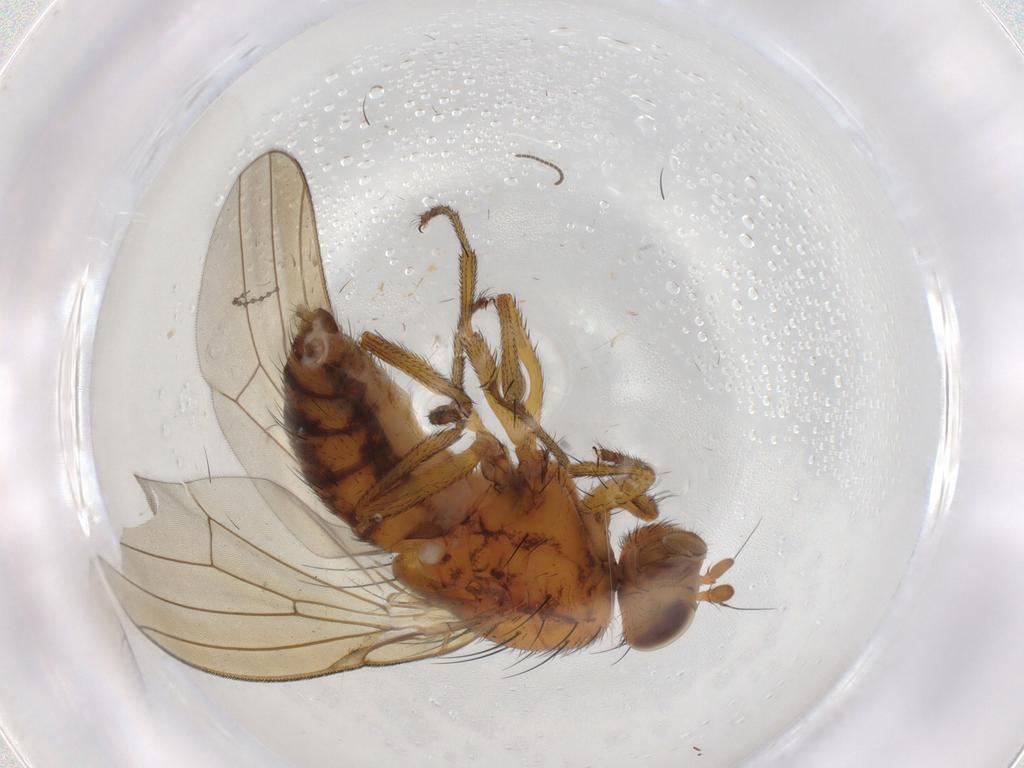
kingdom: Animalia
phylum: Arthropoda
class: Insecta
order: Diptera
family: Lauxaniidae
